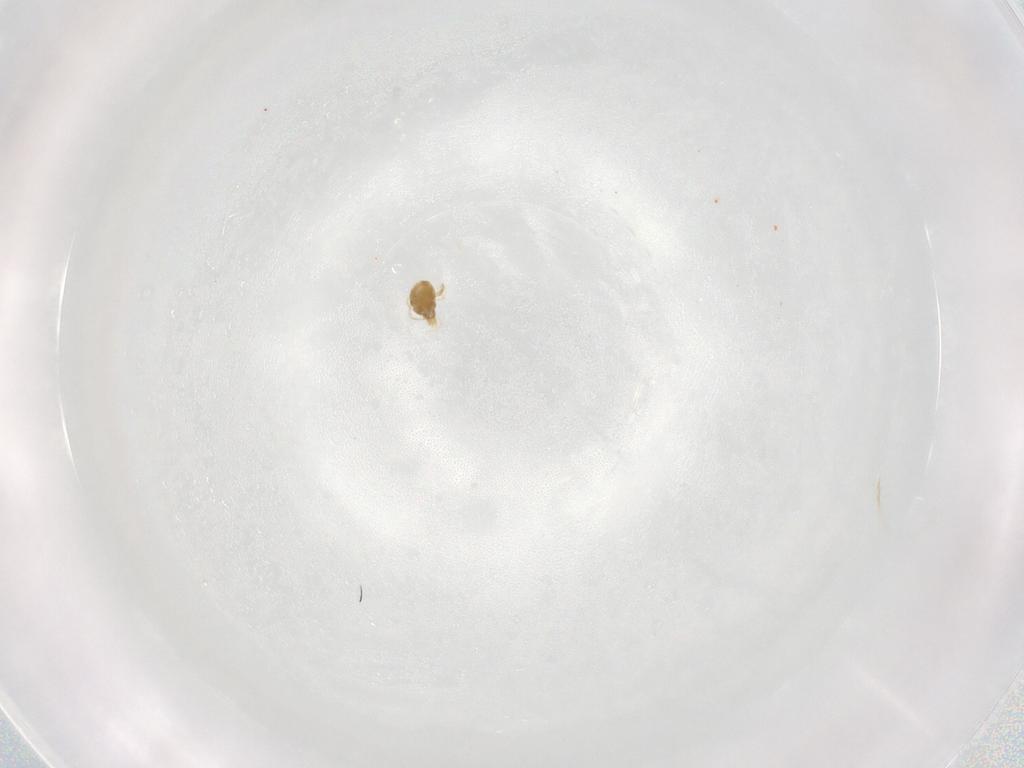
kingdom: Animalia
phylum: Arthropoda
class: Arachnida
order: Trombidiformes
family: Eupodidae
